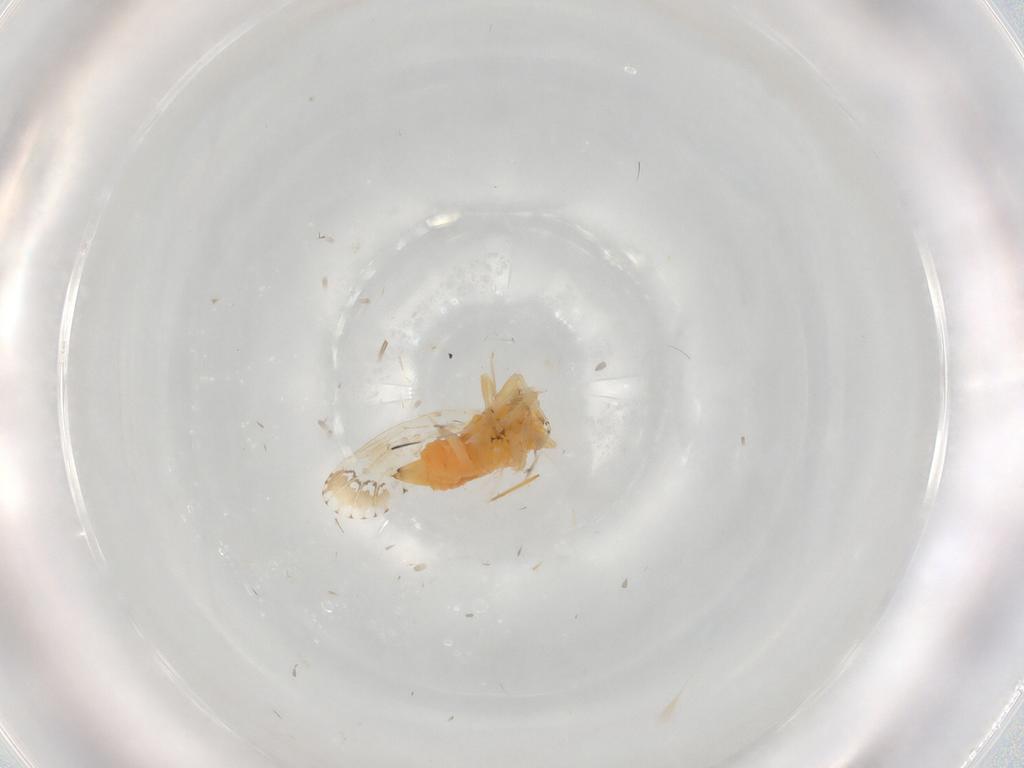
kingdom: Animalia
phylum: Arthropoda
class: Insecta
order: Hemiptera
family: Psyllidae
